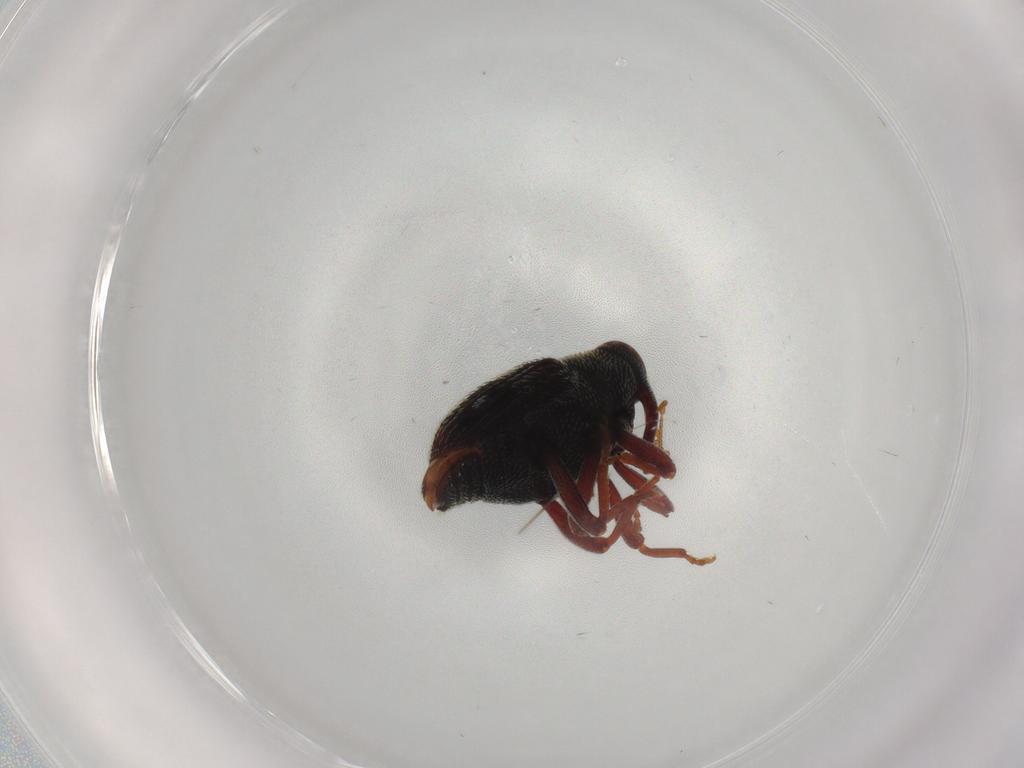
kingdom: Animalia
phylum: Arthropoda
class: Insecta
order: Coleoptera
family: Curculionidae
